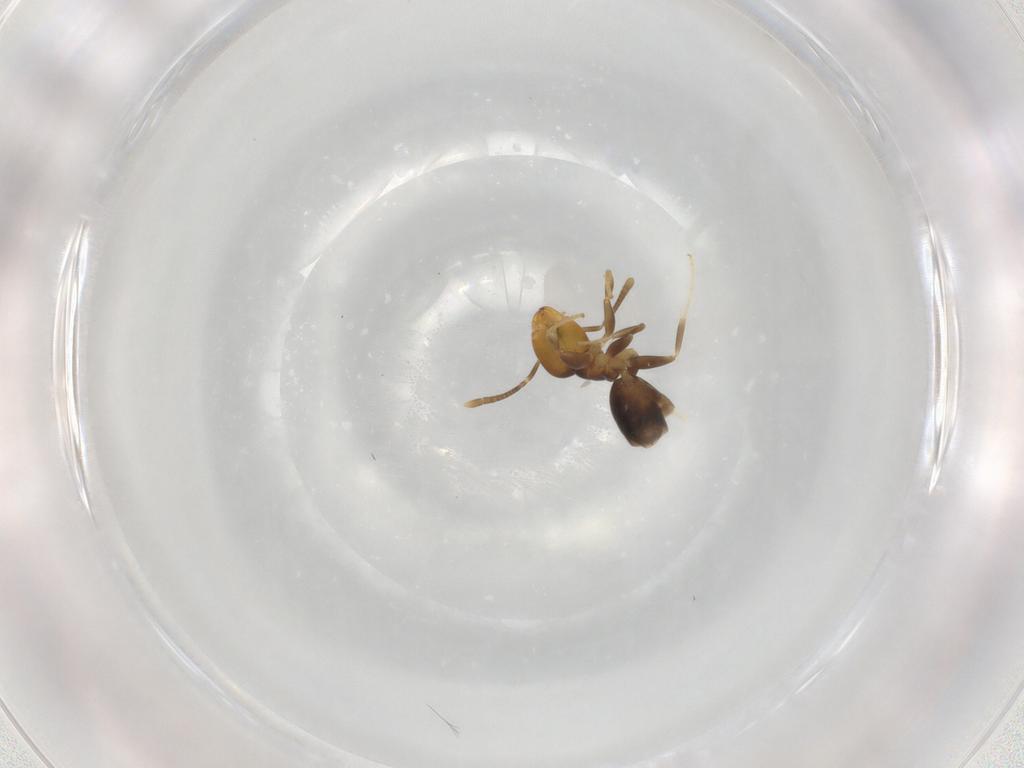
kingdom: Animalia
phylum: Arthropoda
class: Insecta
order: Hymenoptera
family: Formicidae
